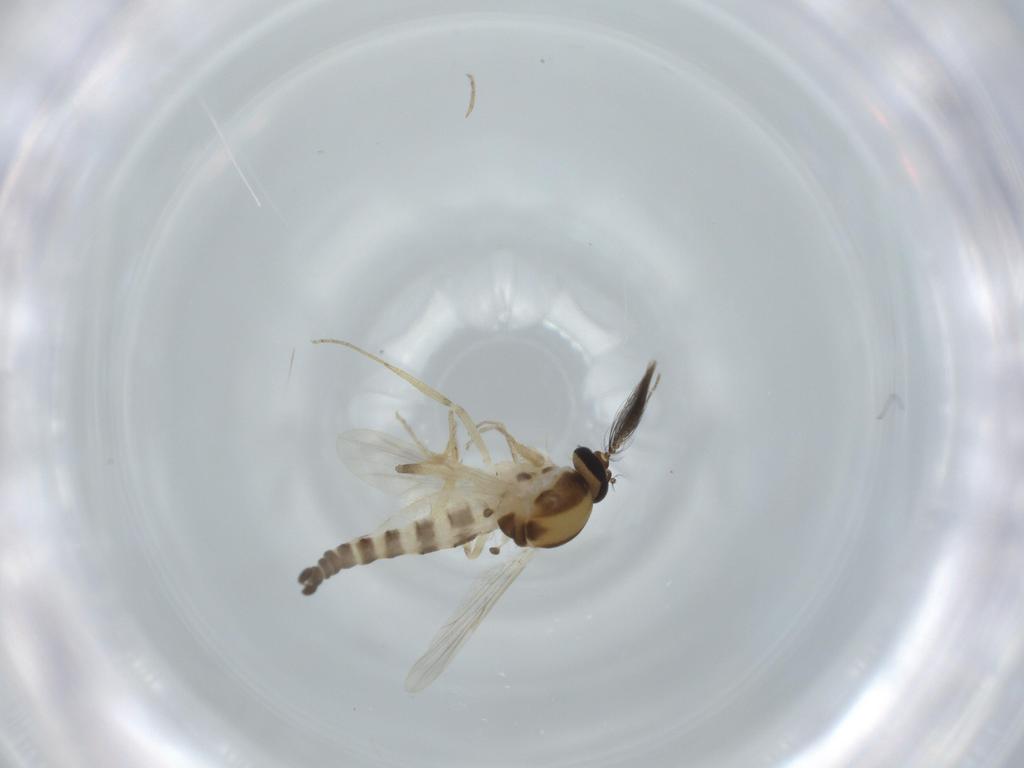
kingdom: Animalia
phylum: Arthropoda
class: Insecta
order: Diptera
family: Ceratopogonidae
